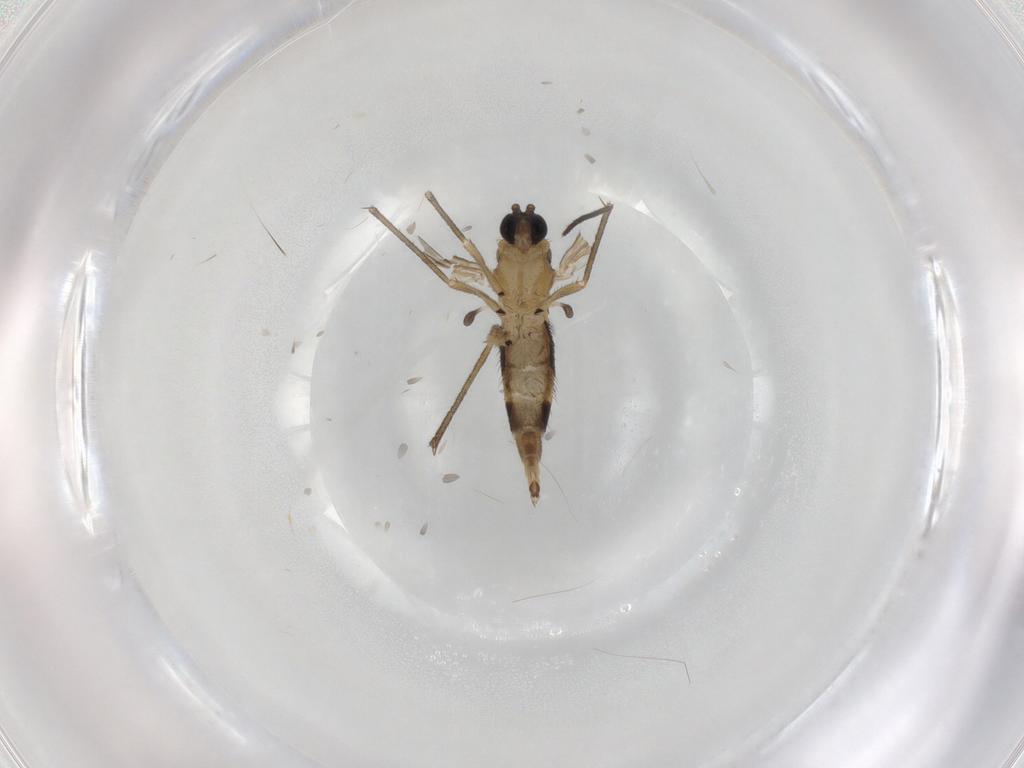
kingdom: Animalia
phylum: Arthropoda
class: Insecta
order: Diptera
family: Sciaridae
